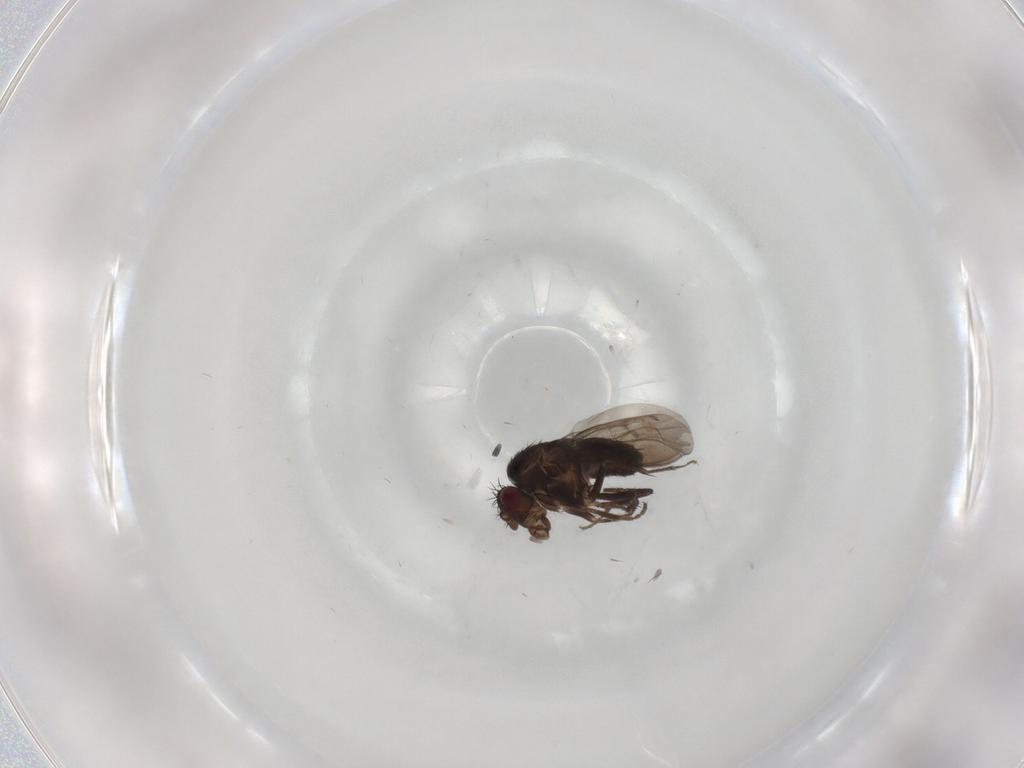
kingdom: Animalia
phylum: Arthropoda
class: Insecta
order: Diptera
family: Sphaeroceridae
